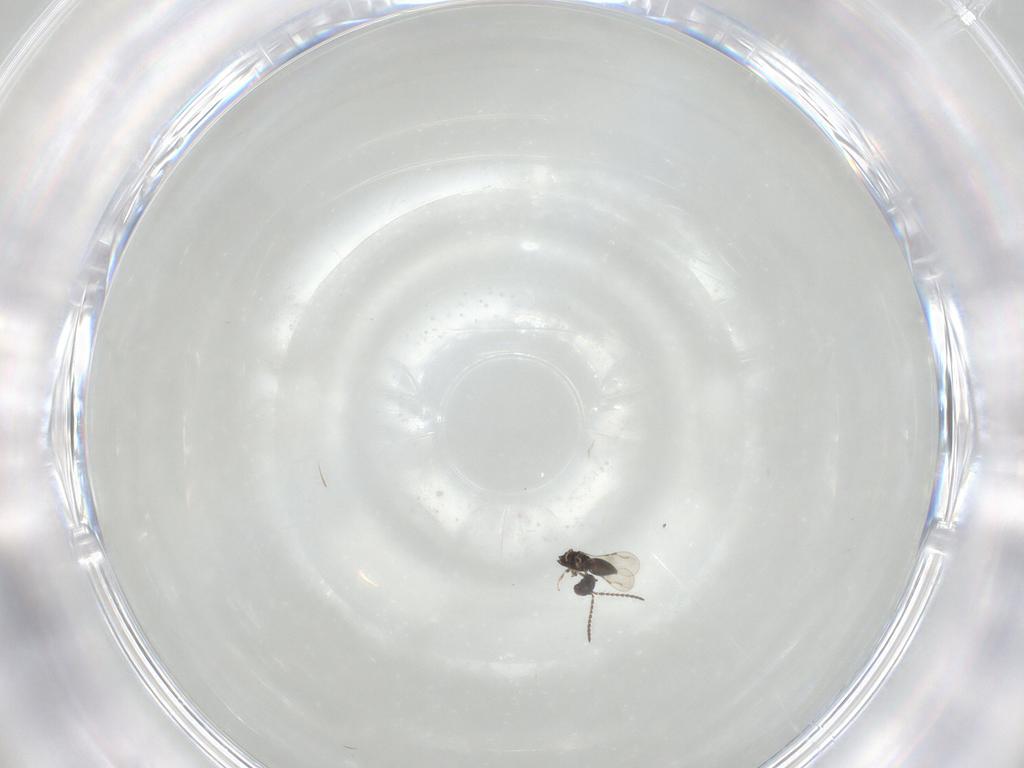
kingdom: Animalia
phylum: Arthropoda
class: Insecta
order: Hymenoptera
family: Ceraphronidae
